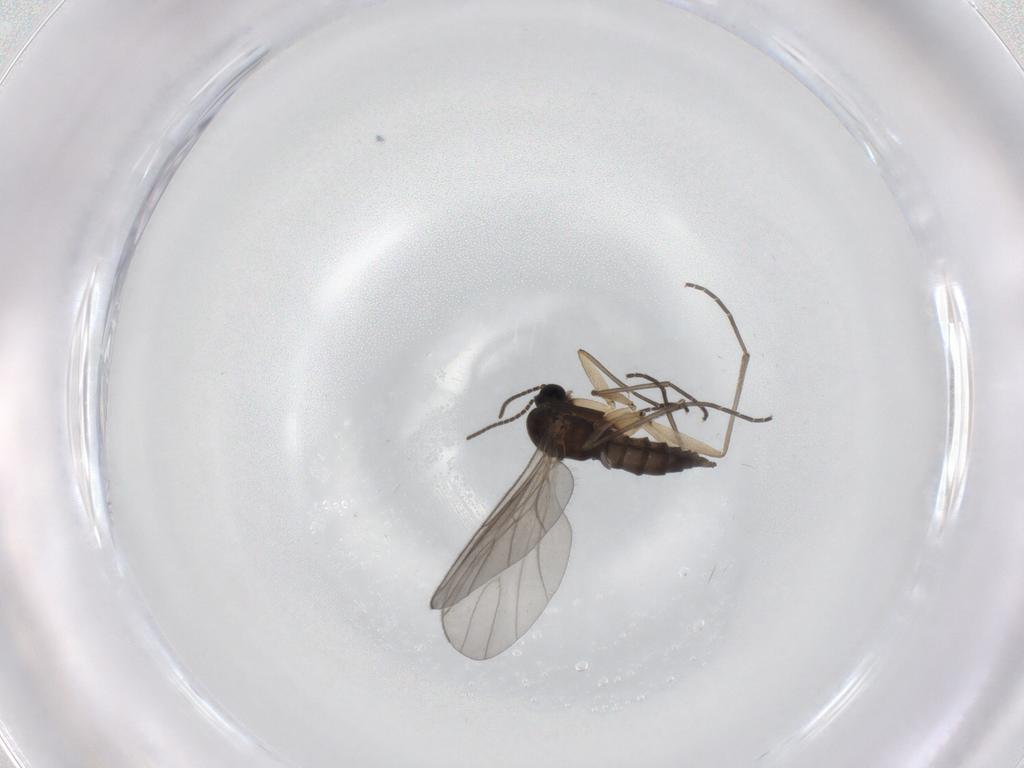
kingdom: Animalia
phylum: Arthropoda
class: Insecta
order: Diptera
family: Sciaridae
